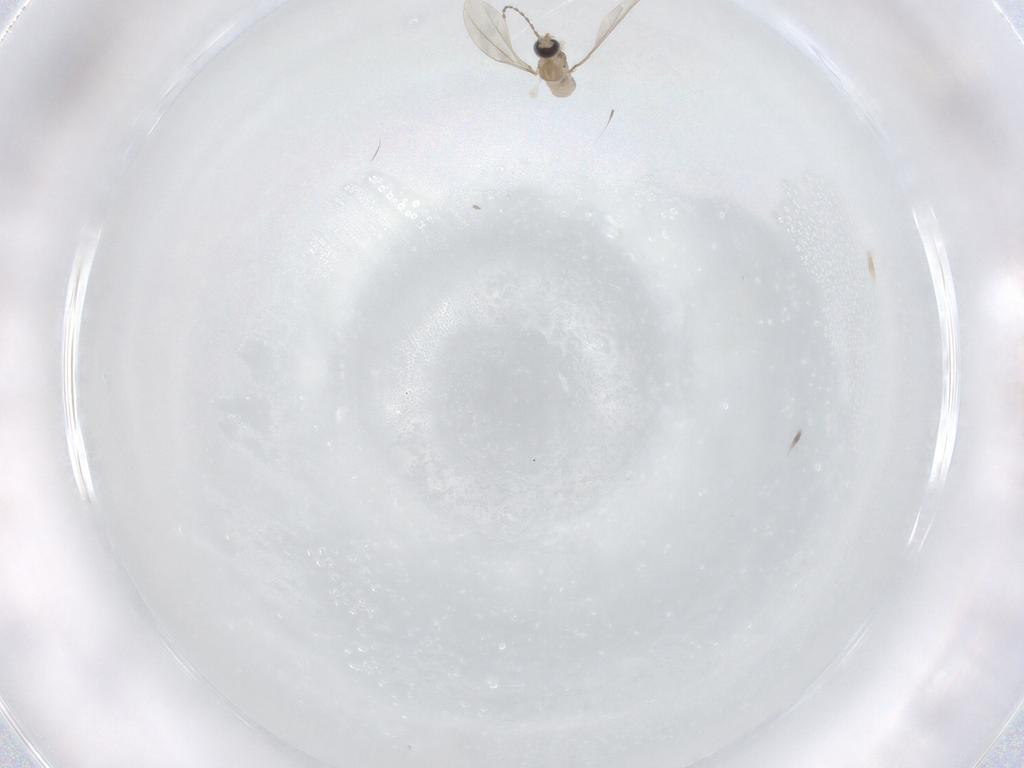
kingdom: Animalia
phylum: Arthropoda
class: Insecta
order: Diptera
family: Cecidomyiidae
